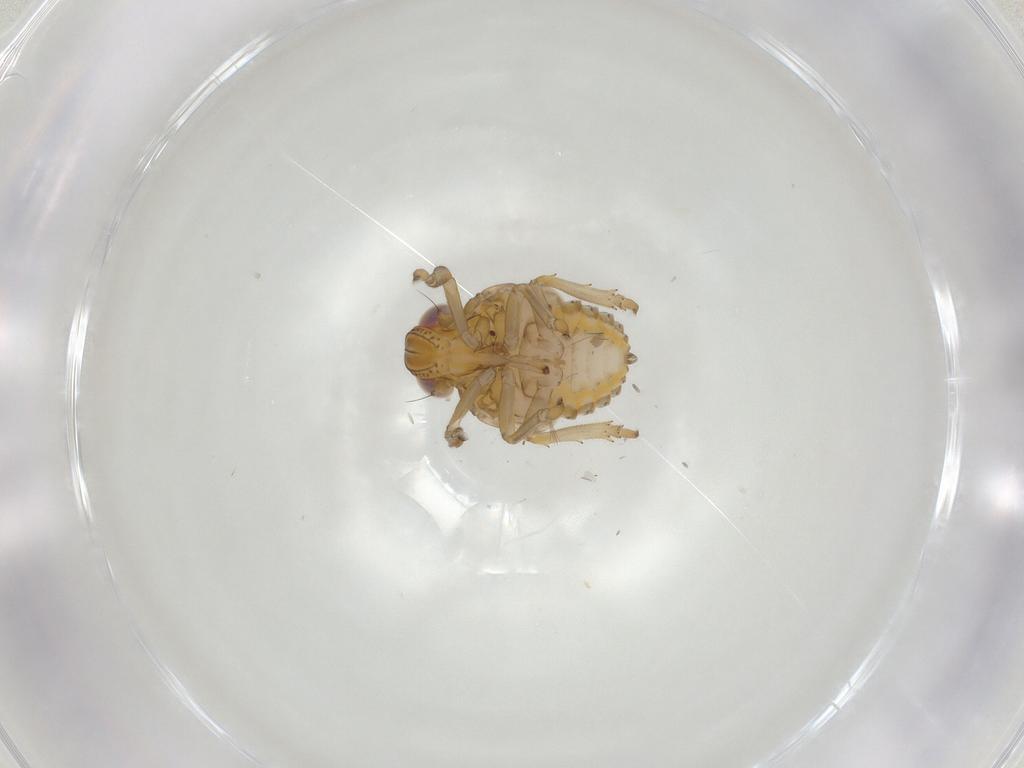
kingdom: Animalia
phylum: Arthropoda
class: Insecta
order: Hemiptera
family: Issidae
